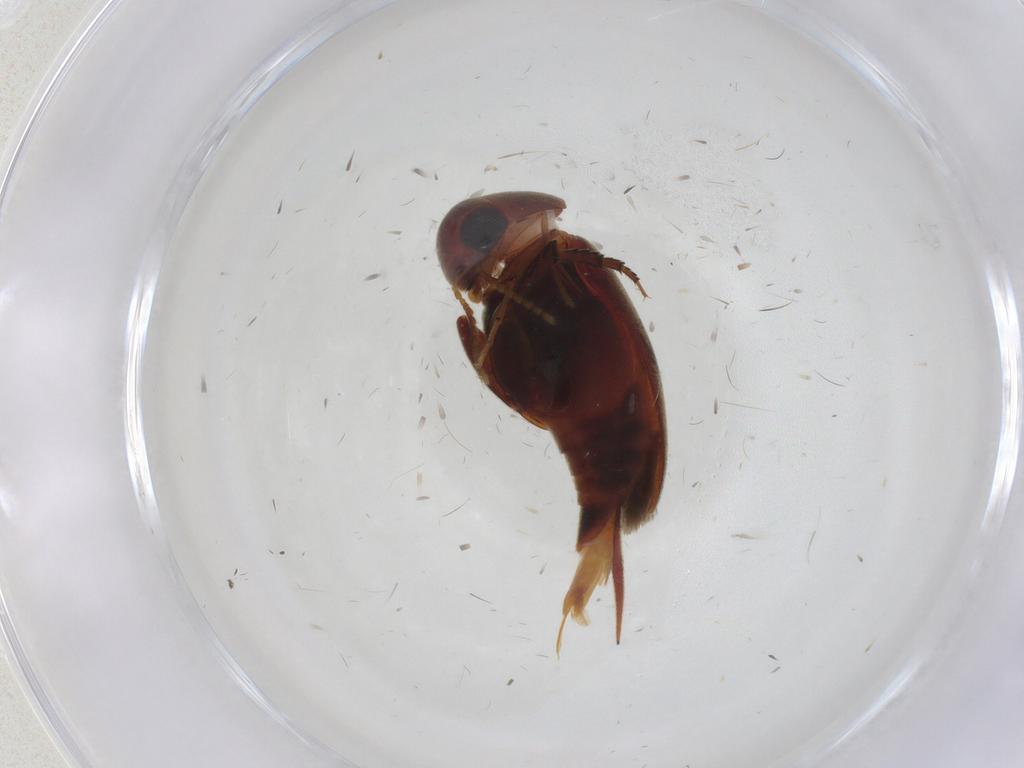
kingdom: Animalia
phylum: Arthropoda
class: Insecta
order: Coleoptera
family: Mordellidae
